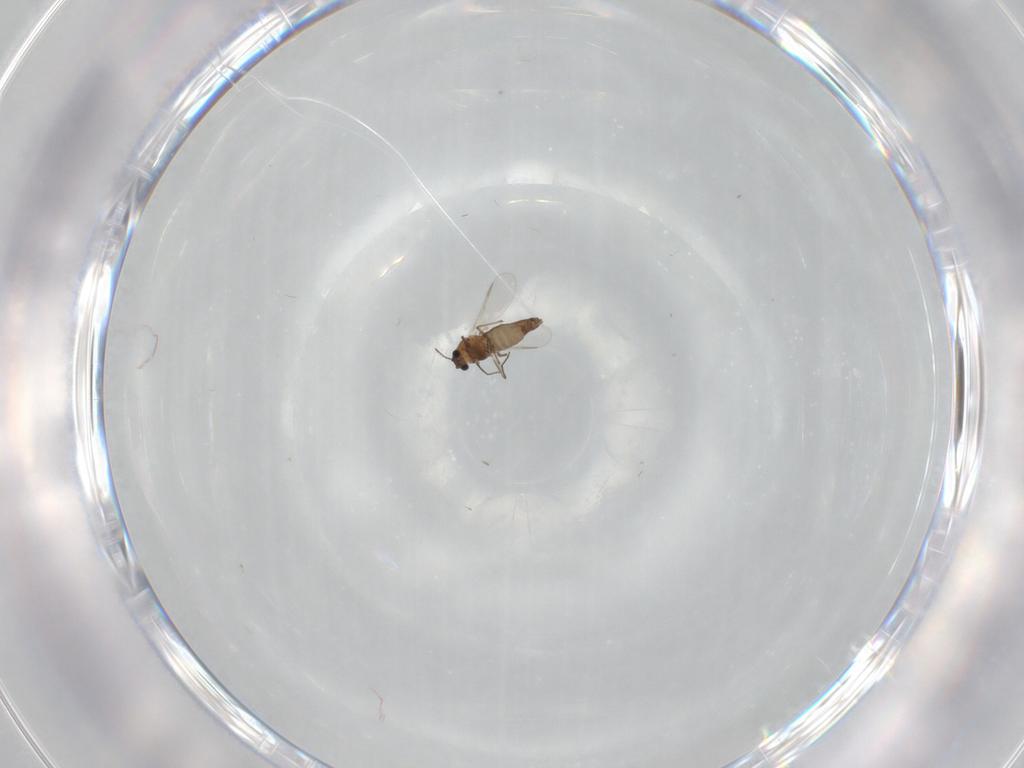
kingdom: Animalia
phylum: Arthropoda
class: Insecta
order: Diptera
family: Chironomidae
